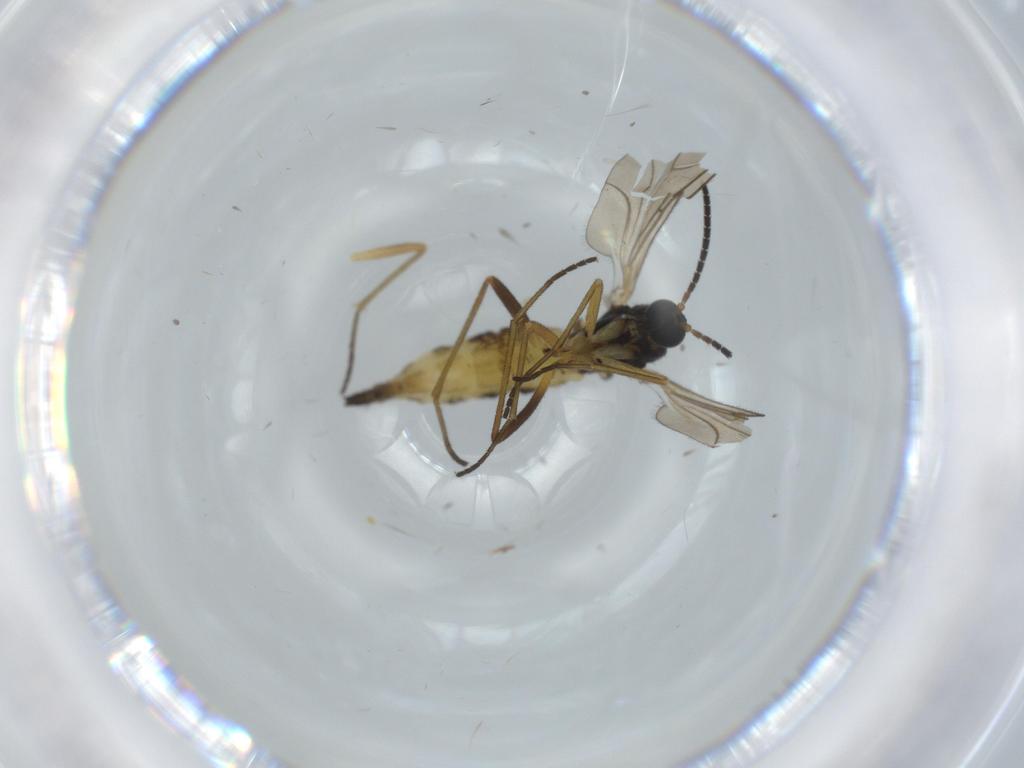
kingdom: Animalia
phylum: Arthropoda
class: Insecta
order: Diptera
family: Sciaridae
